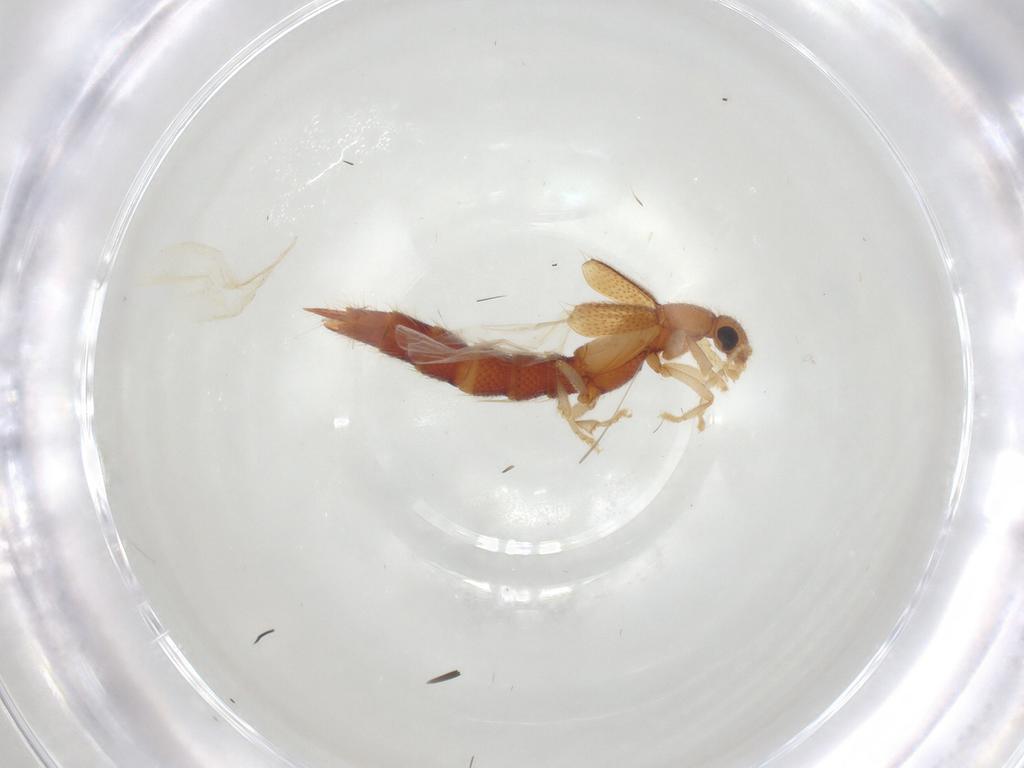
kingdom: Animalia
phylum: Arthropoda
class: Insecta
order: Coleoptera
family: Staphylinidae
